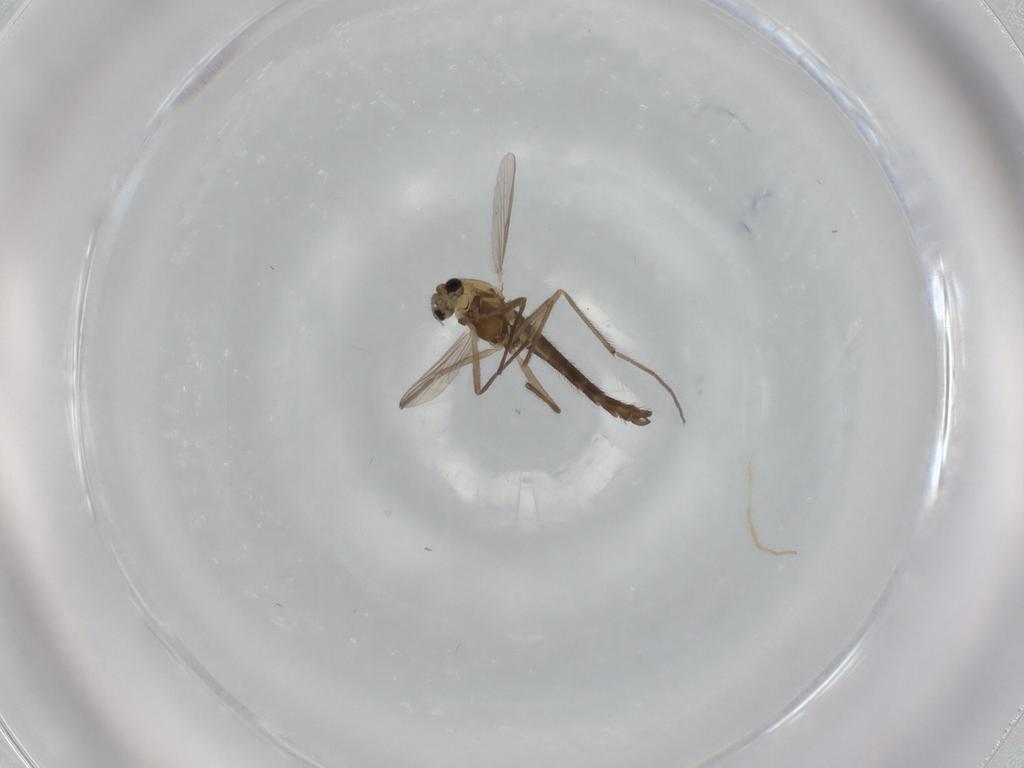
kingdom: Animalia
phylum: Arthropoda
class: Insecta
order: Diptera
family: Chironomidae
